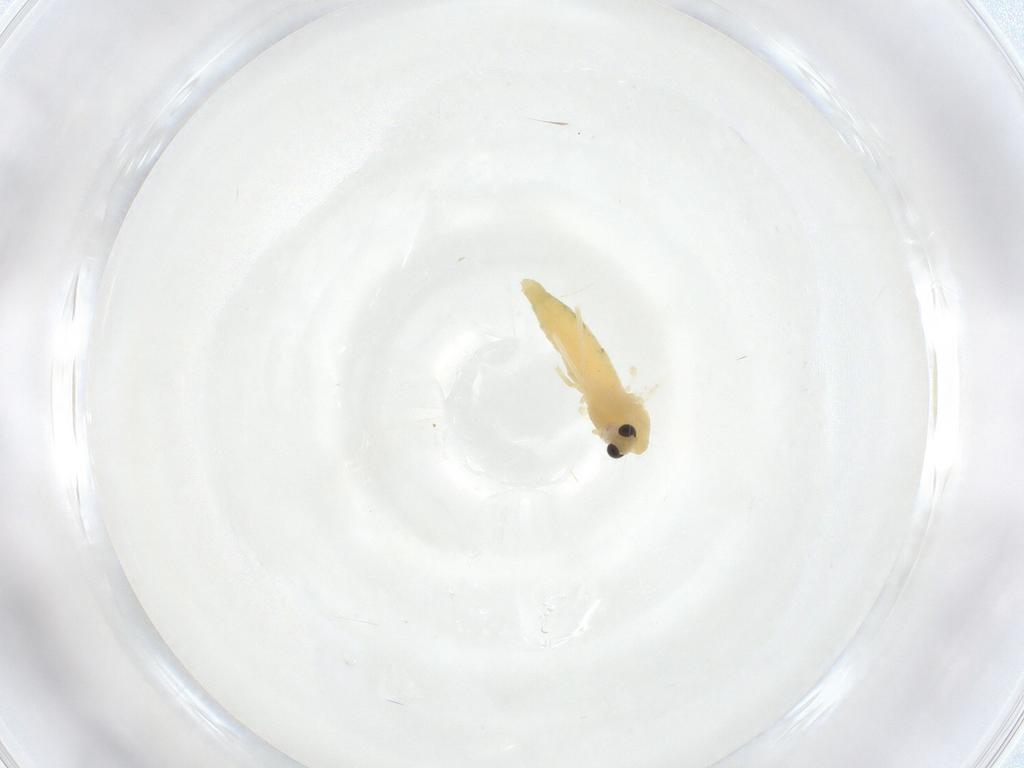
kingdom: Animalia
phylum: Arthropoda
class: Insecta
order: Diptera
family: Chironomidae
